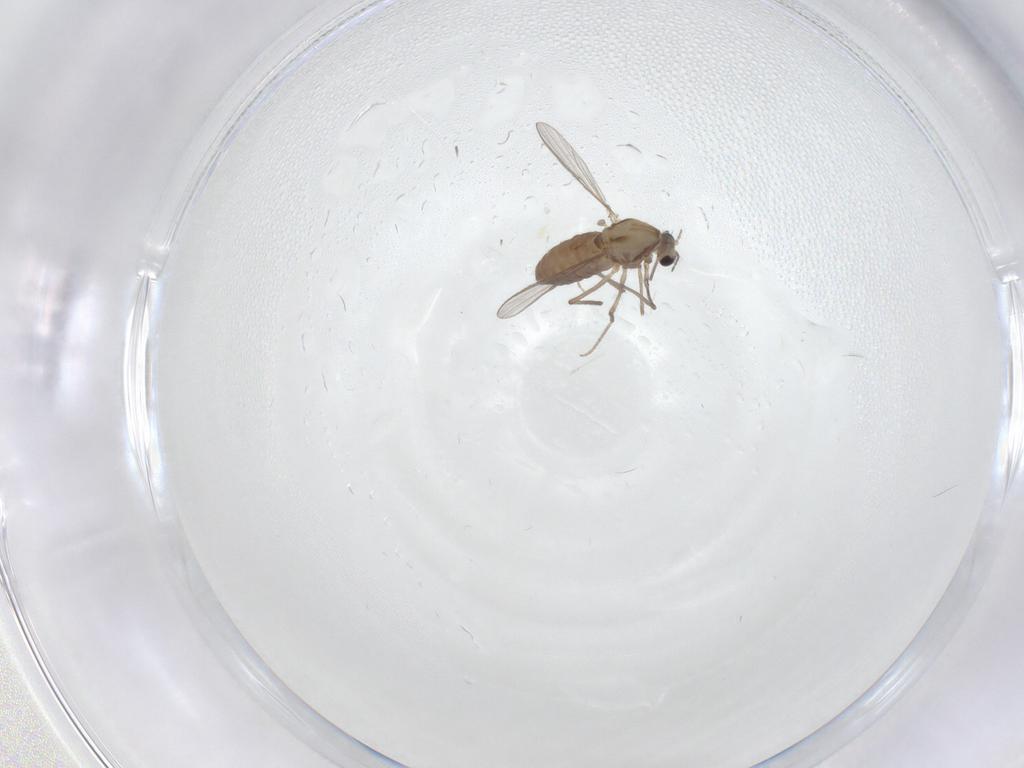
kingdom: Animalia
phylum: Arthropoda
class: Insecta
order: Diptera
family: Chironomidae
